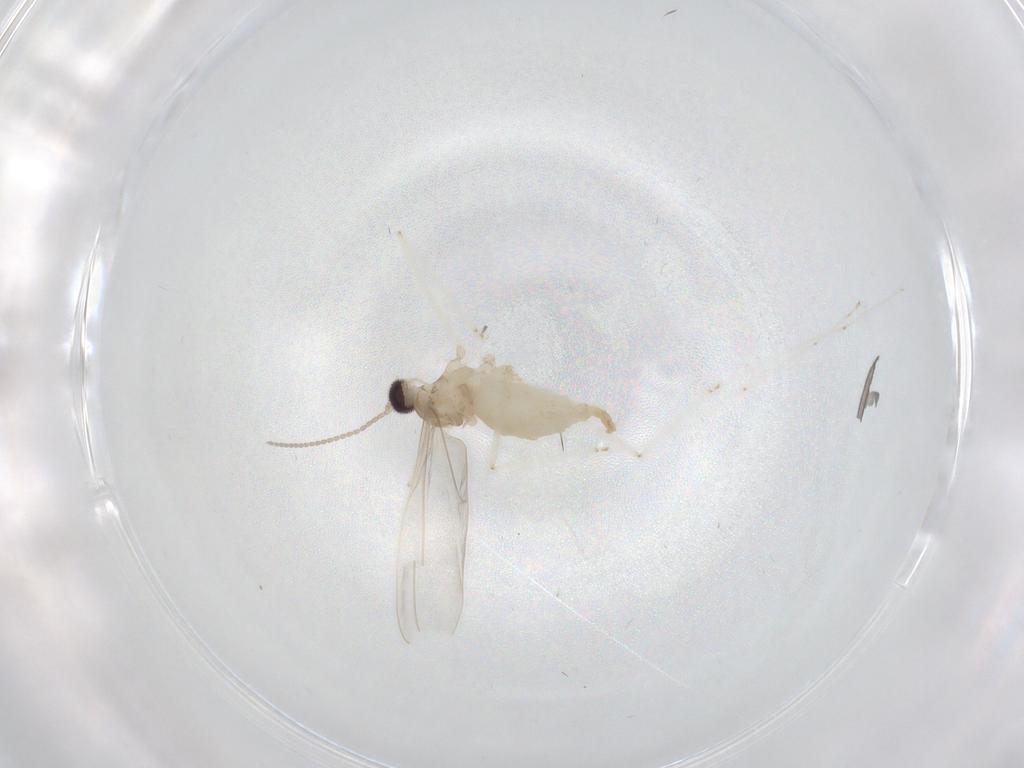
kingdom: Animalia
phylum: Arthropoda
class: Insecta
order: Diptera
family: Cecidomyiidae
